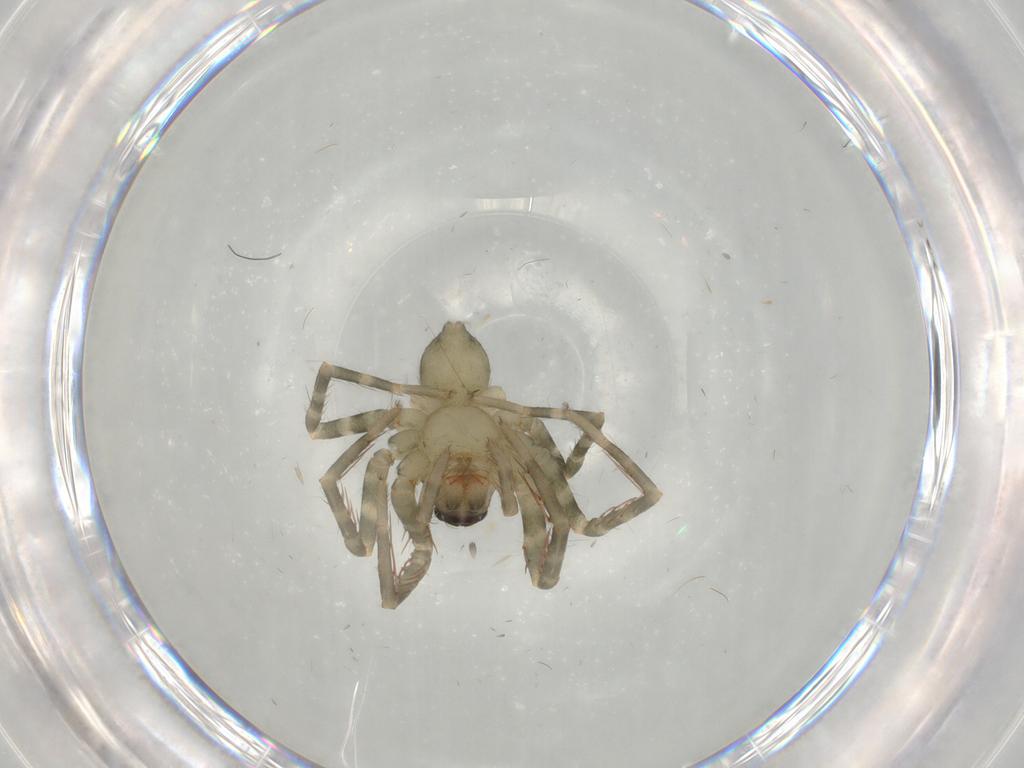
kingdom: Animalia
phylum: Arthropoda
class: Arachnida
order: Araneae
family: Ctenidae
